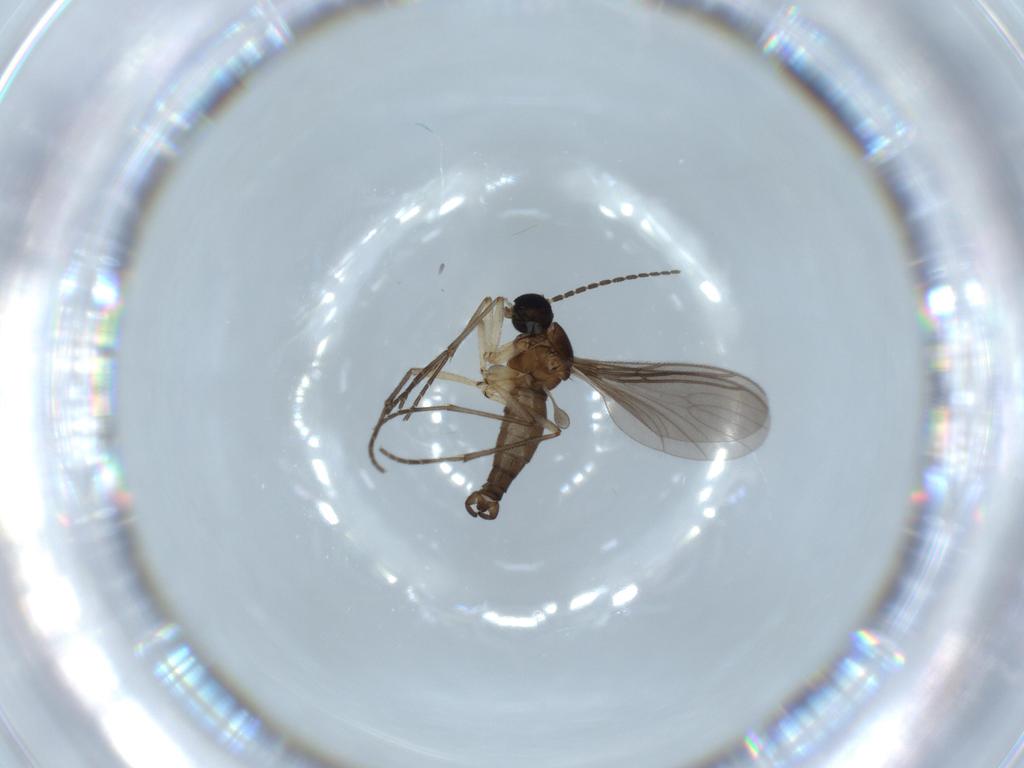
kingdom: Animalia
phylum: Arthropoda
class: Insecta
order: Diptera
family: Sciaridae
